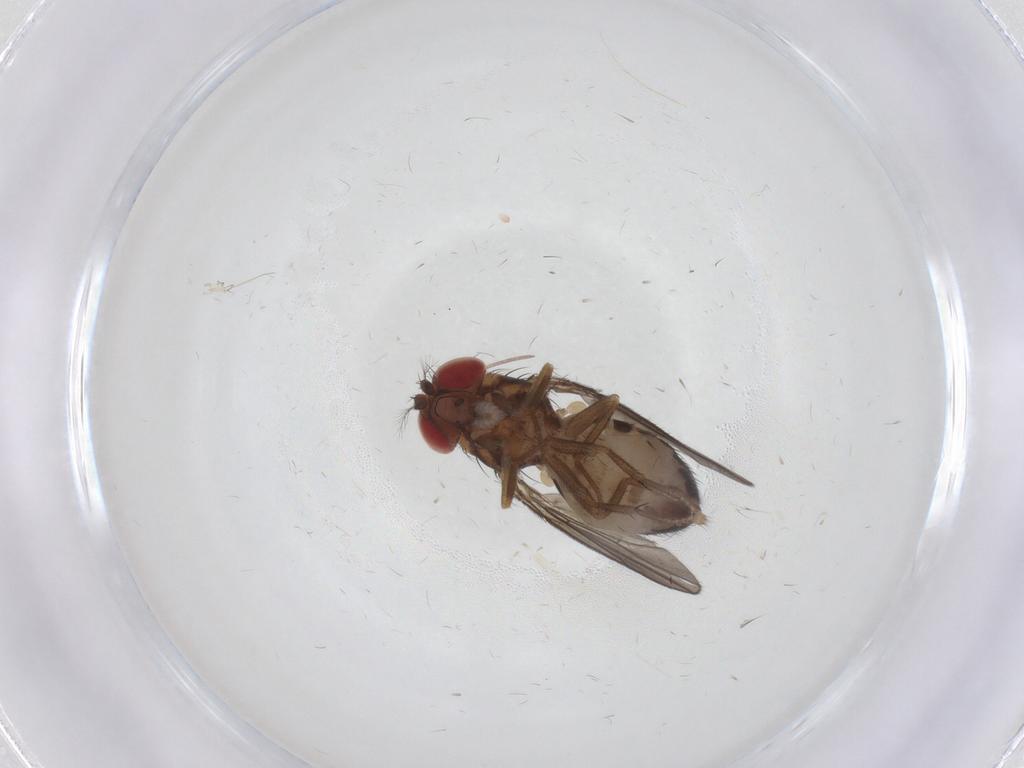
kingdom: Animalia
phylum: Arthropoda
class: Insecta
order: Diptera
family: Drosophilidae
